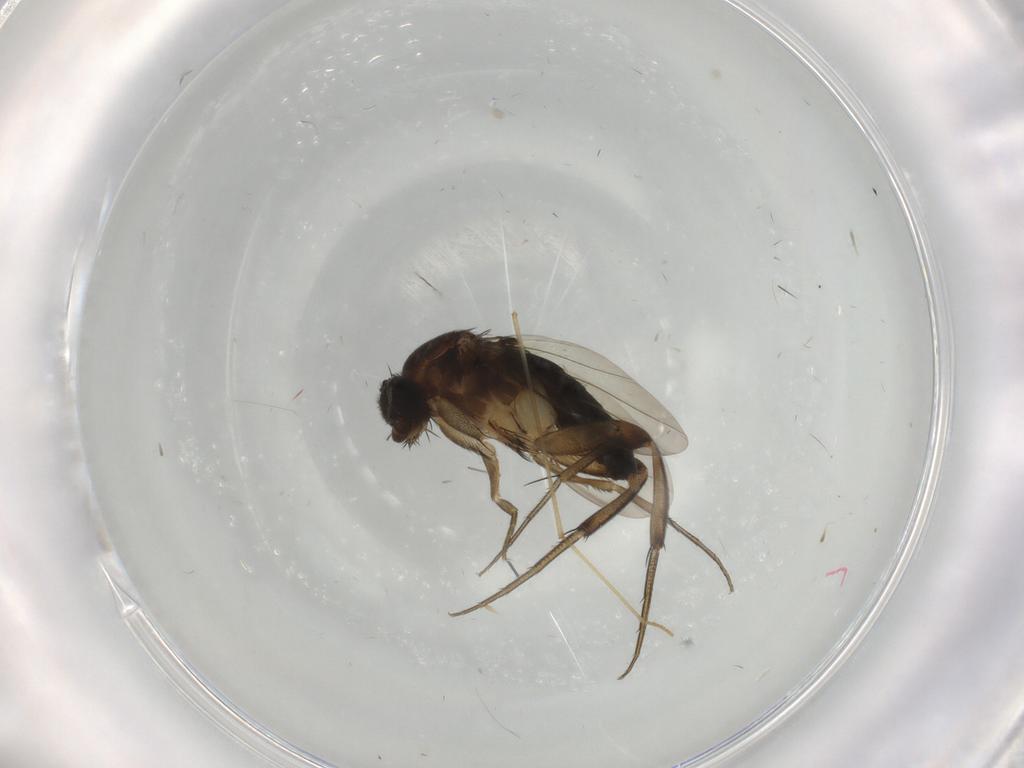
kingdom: Animalia
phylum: Arthropoda
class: Insecta
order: Diptera
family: Phoridae
